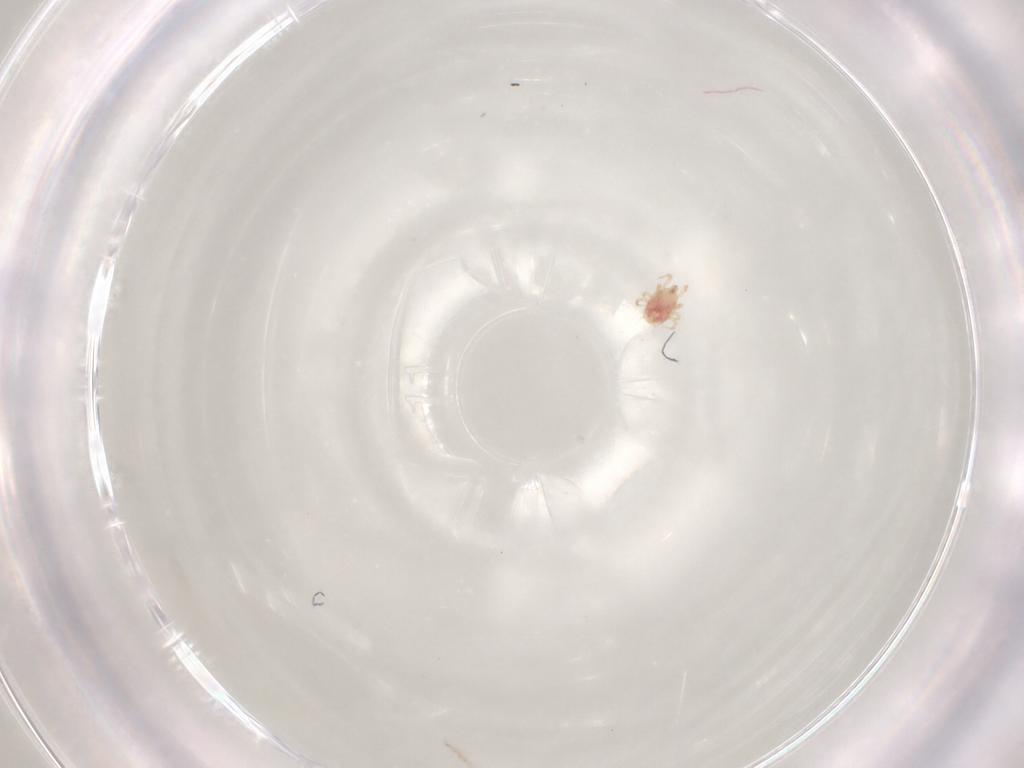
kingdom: Animalia
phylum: Arthropoda
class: Arachnida
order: Mesostigmata
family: Phytoseiidae
